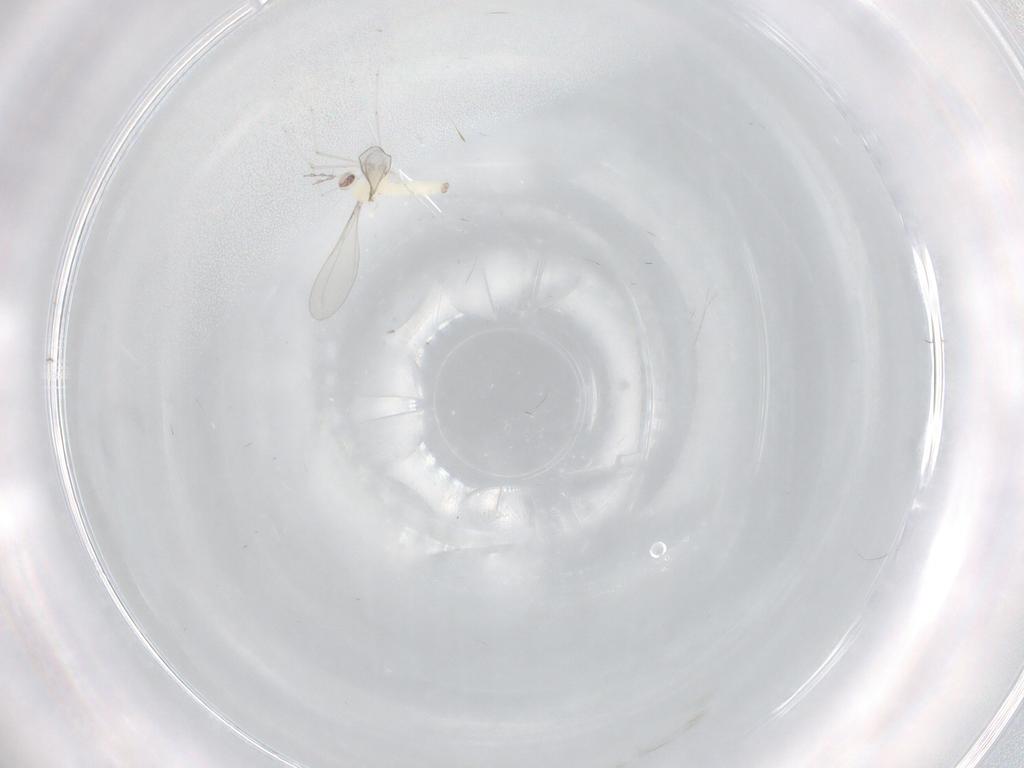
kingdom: Animalia
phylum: Arthropoda
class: Insecta
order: Diptera
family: Cecidomyiidae
